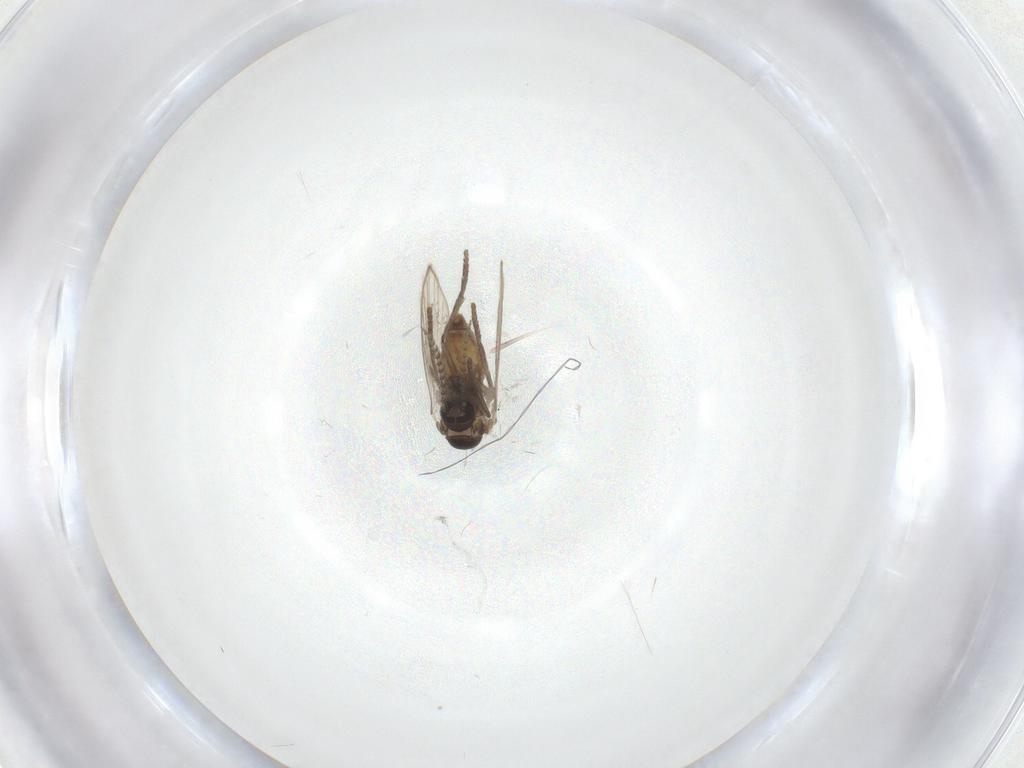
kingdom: Animalia
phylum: Arthropoda
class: Insecta
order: Diptera
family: Psychodidae
